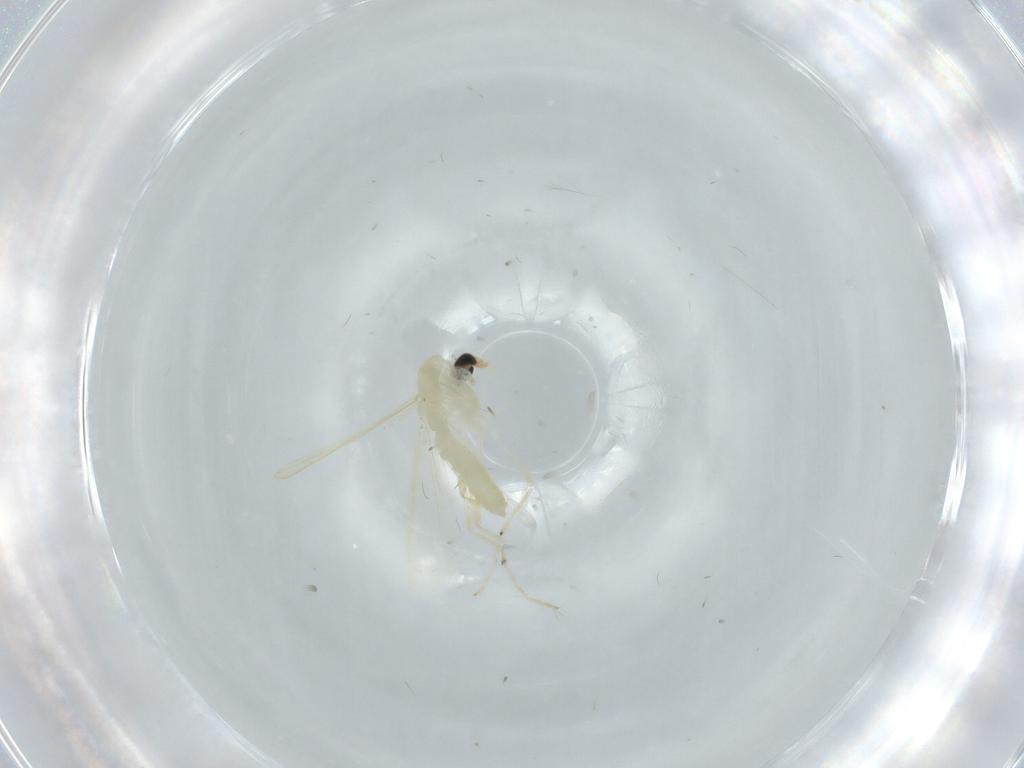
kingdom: Animalia
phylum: Arthropoda
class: Insecta
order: Diptera
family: Chironomidae
